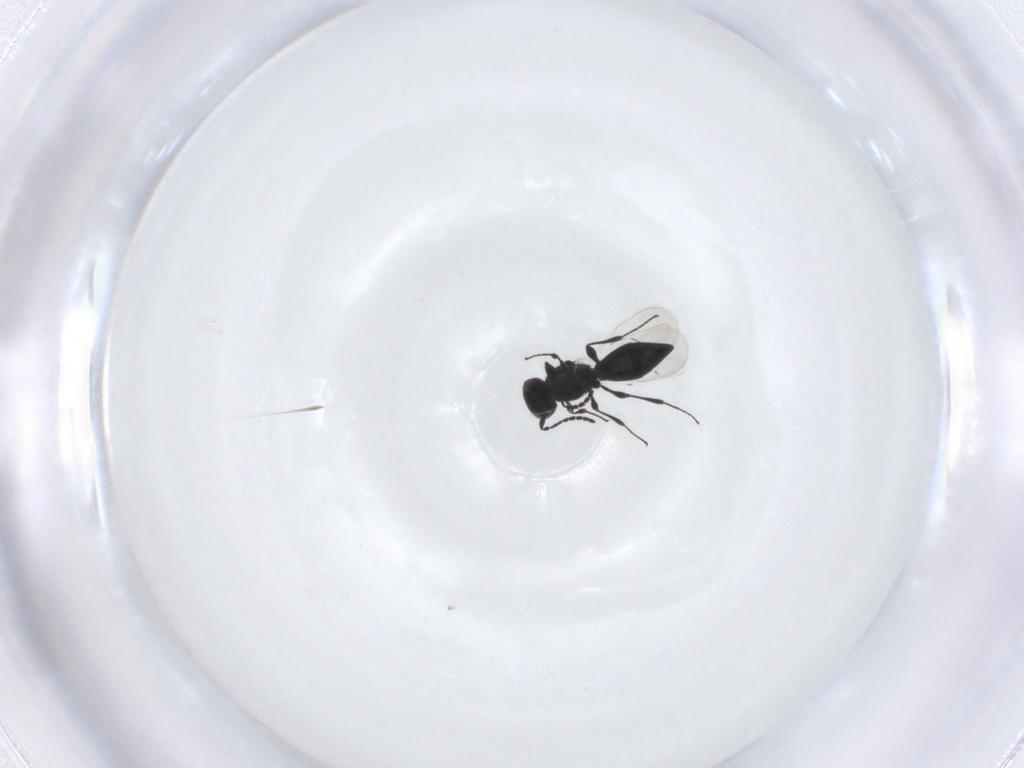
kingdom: Animalia
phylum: Arthropoda
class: Insecta
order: Hymenoptera
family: Platygastridae
